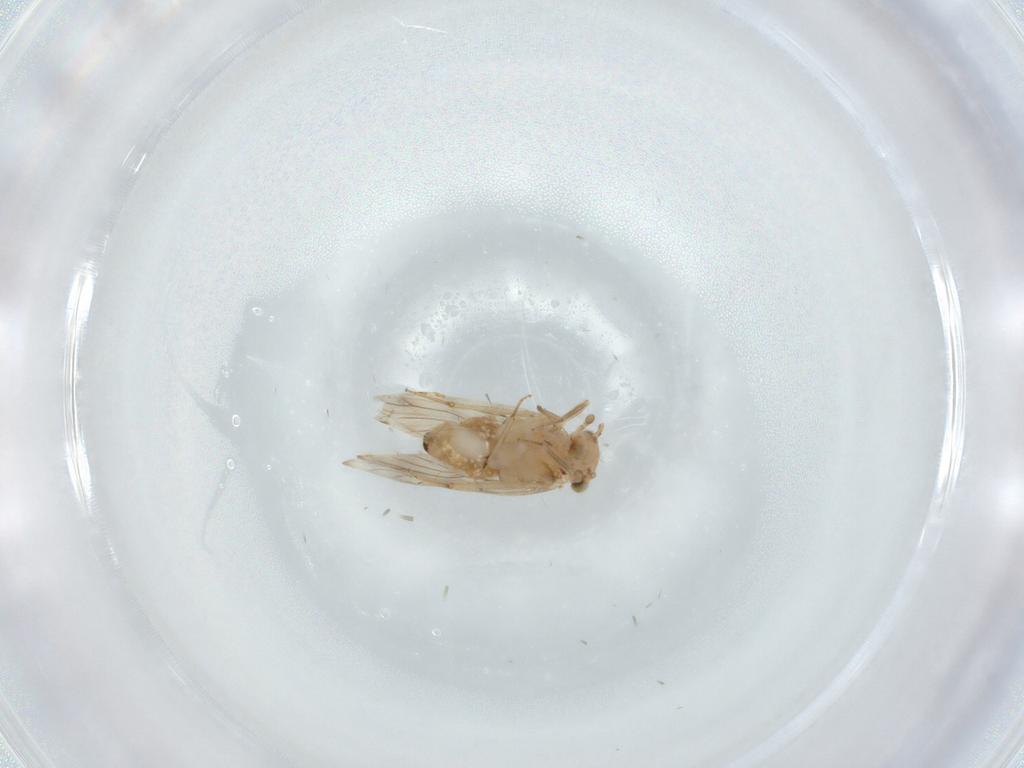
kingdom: Animalia
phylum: Arthropoda
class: Insecta
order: Psocodea
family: Lepidopsocidae
